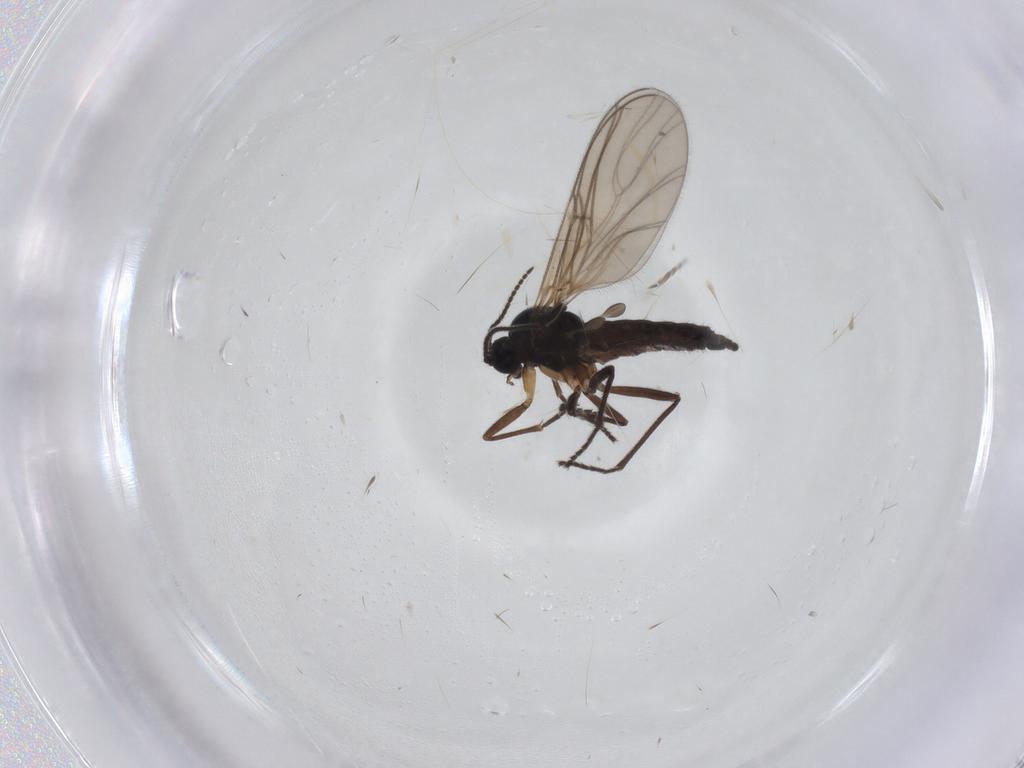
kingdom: Animalia
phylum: Arthropoda
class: Insecta
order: Diptera
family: Sciaridae
